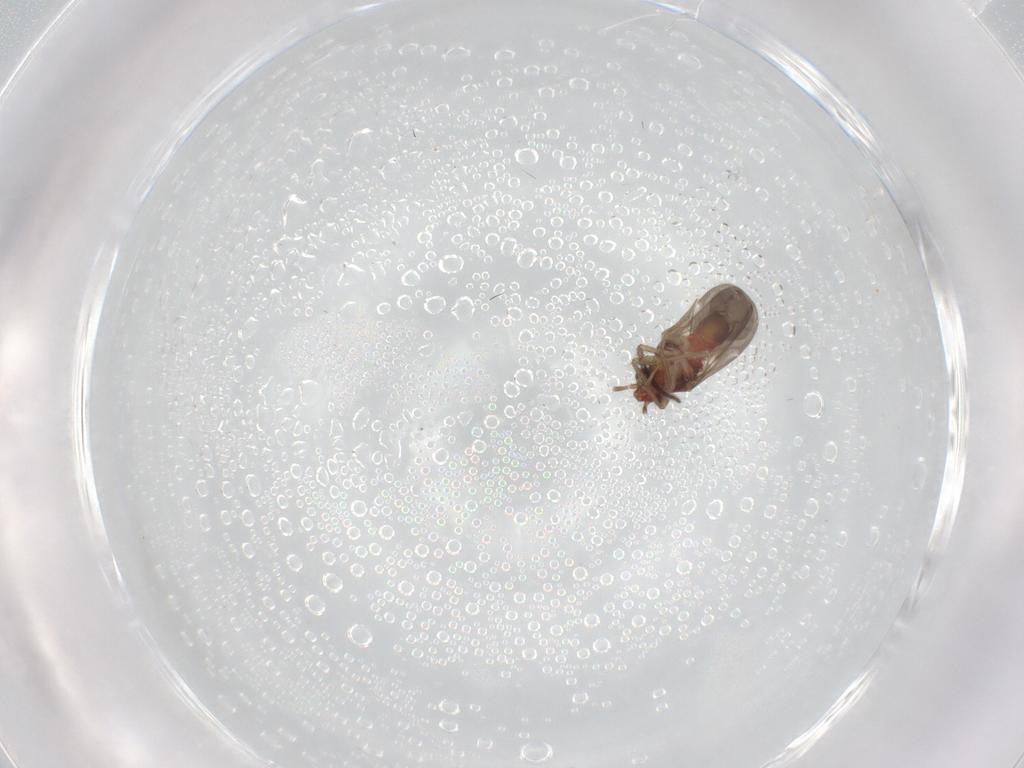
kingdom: Animalia
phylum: Arthropoda
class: Insecta
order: Hemiptera
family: Ceratocombidae
